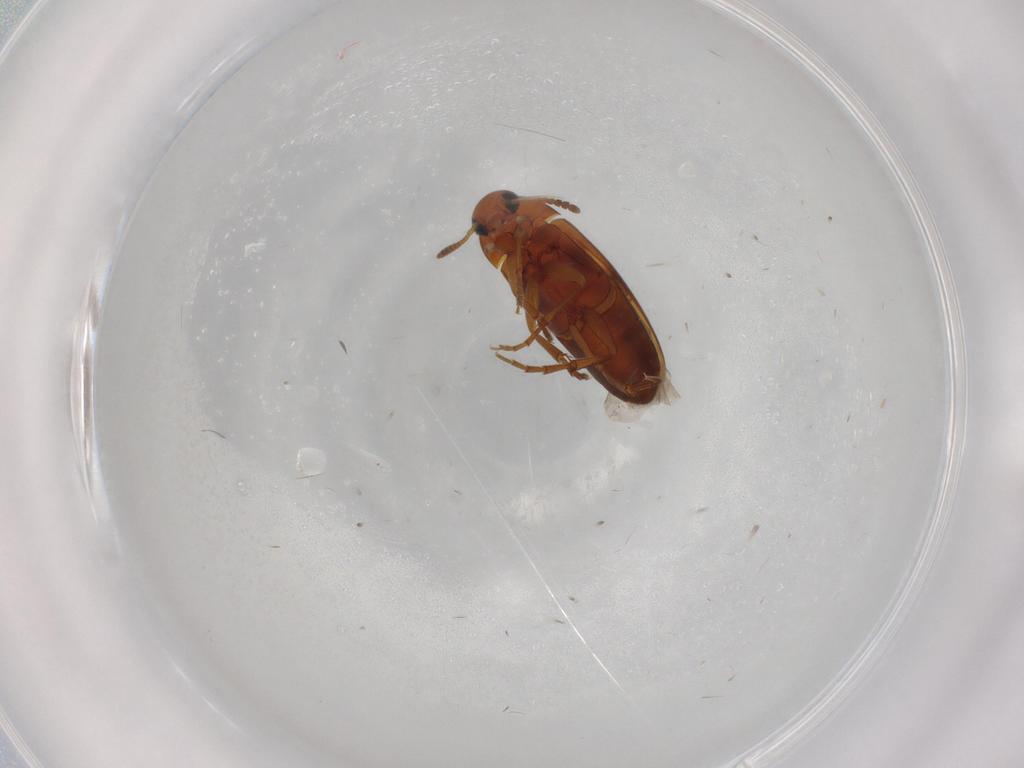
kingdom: Animalia
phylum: Arthropoda
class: Insecta
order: Coleoptera
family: Scraptiidae
